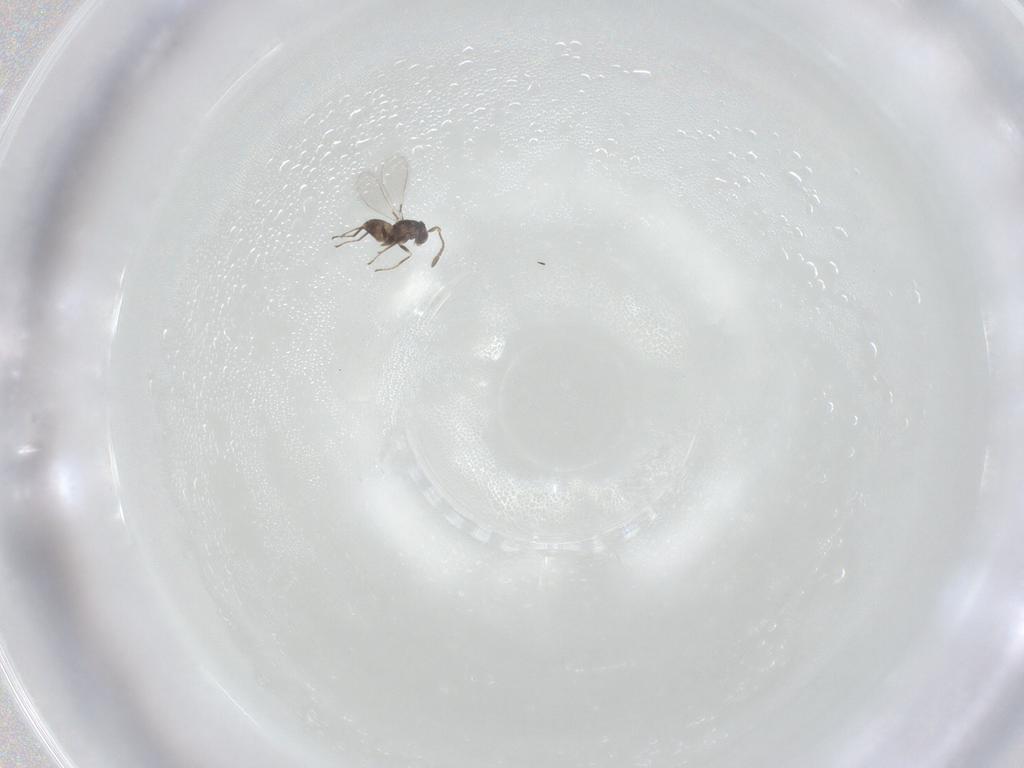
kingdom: Animalia
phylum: Arthropoda
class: Insecta
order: Hymenoptera
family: Mymaridae
